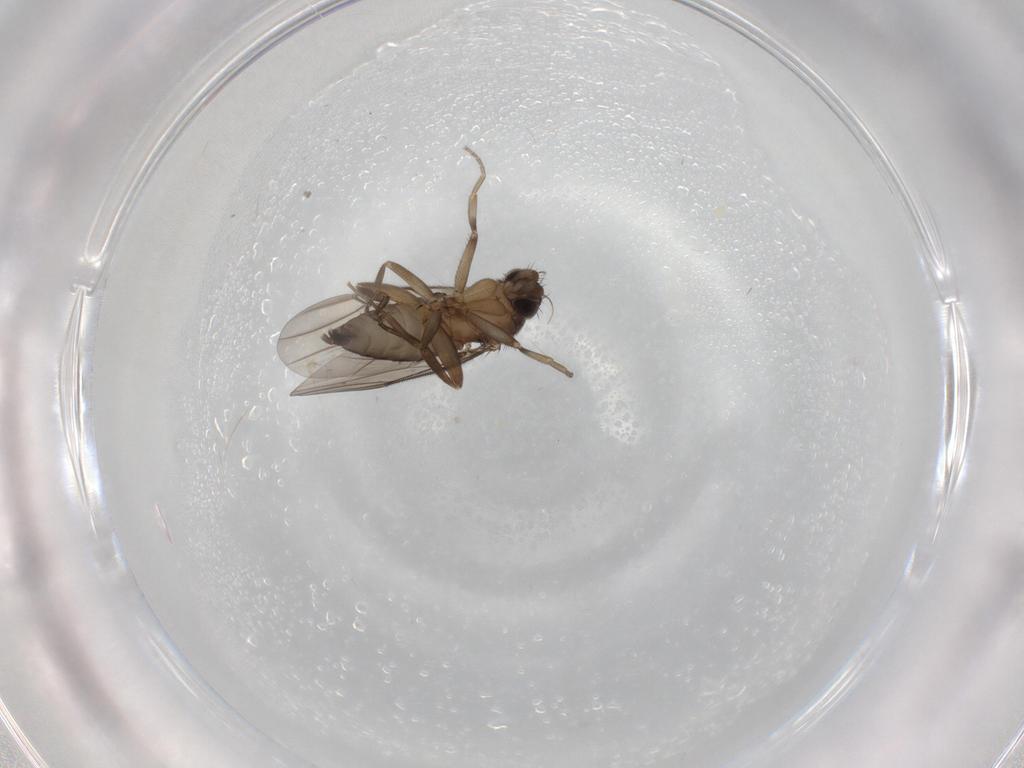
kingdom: Animalia
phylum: Arthropoda
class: Insecta
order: Diptera
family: Phoridae
